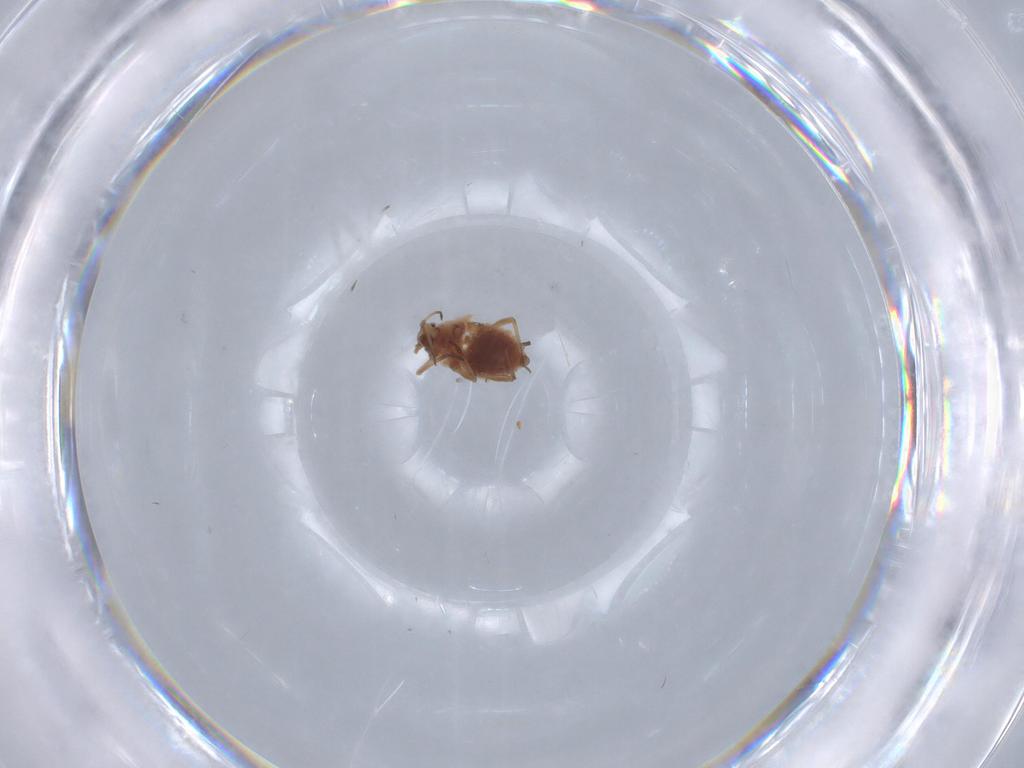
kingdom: Animalia
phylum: Arthropoda
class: Insecta
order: Hemiptera
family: Aphididae
